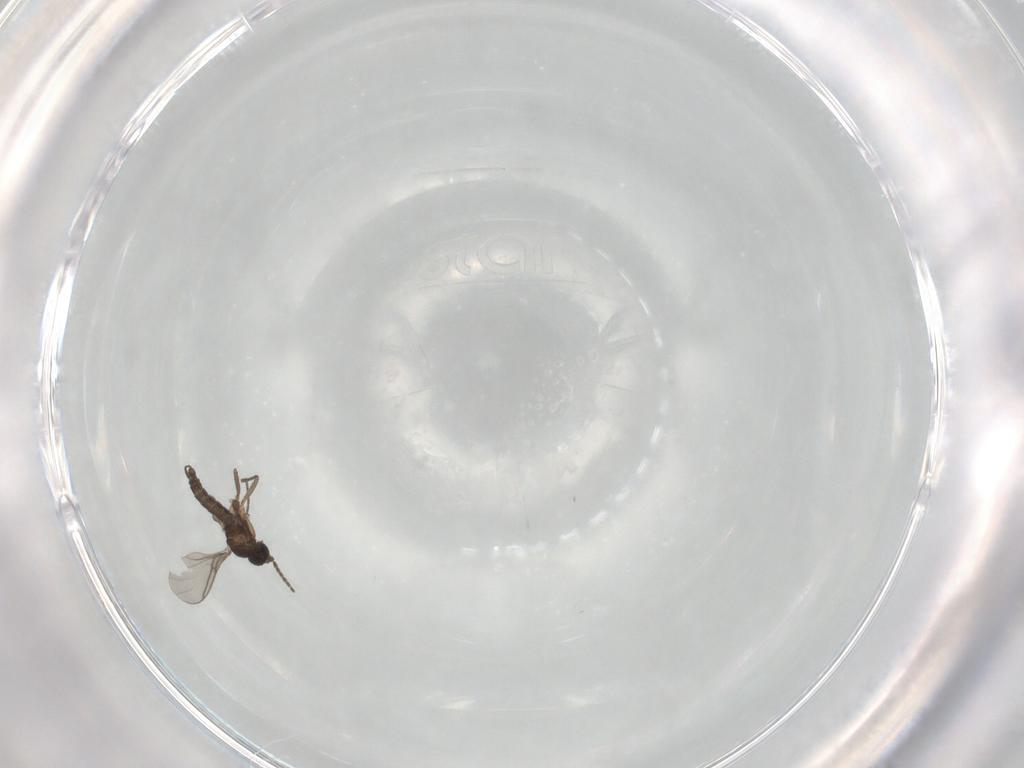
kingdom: Animalia
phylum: Arthropoda
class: Insecta
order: Diptera
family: Sciaridae
